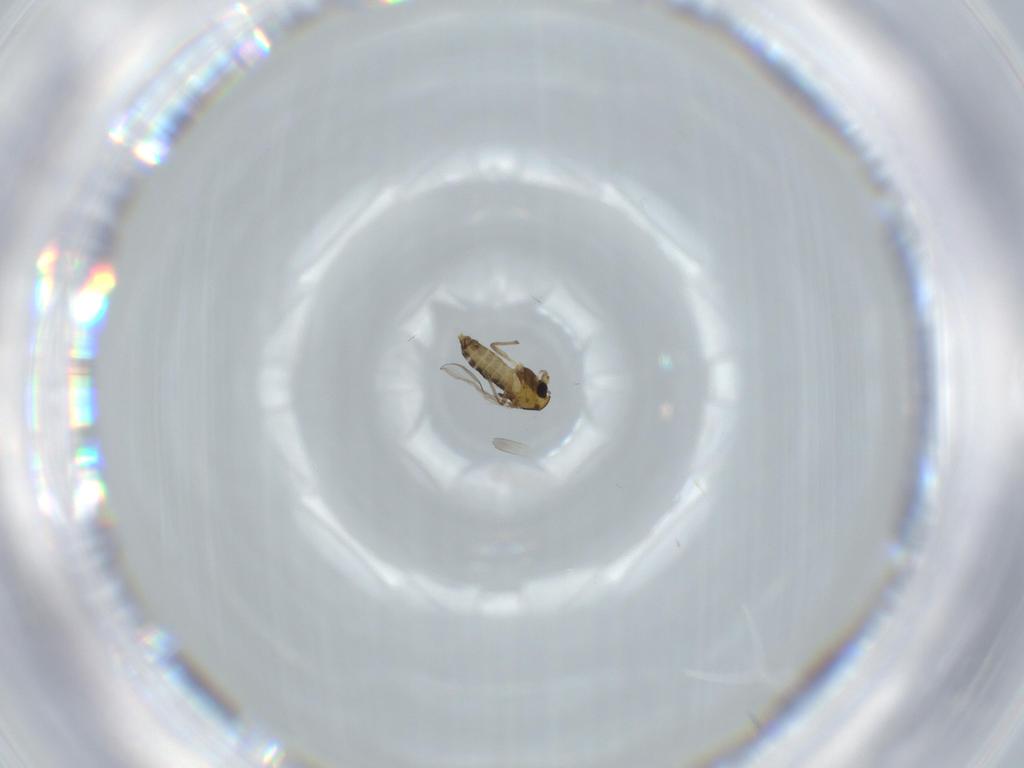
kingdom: Animalia
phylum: Arthropoda
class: Insecta
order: Diptera
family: Chironomidae
